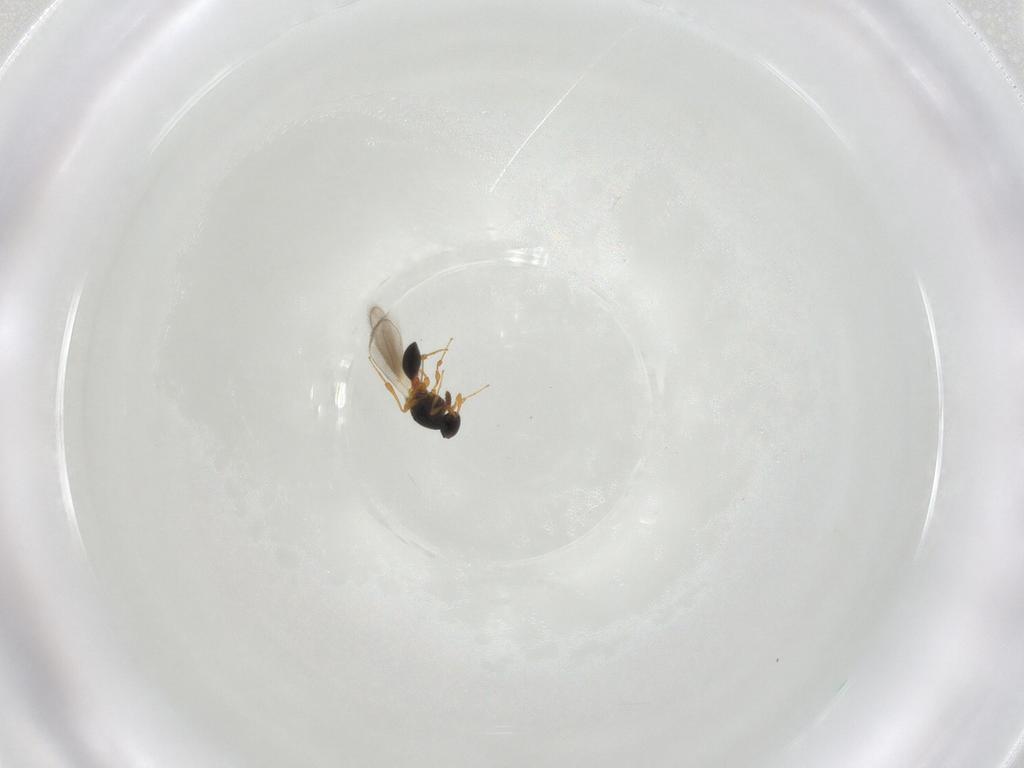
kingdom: Animalia
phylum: Arthropoda
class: Insecta
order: Hymenoptera
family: Platygastridae
